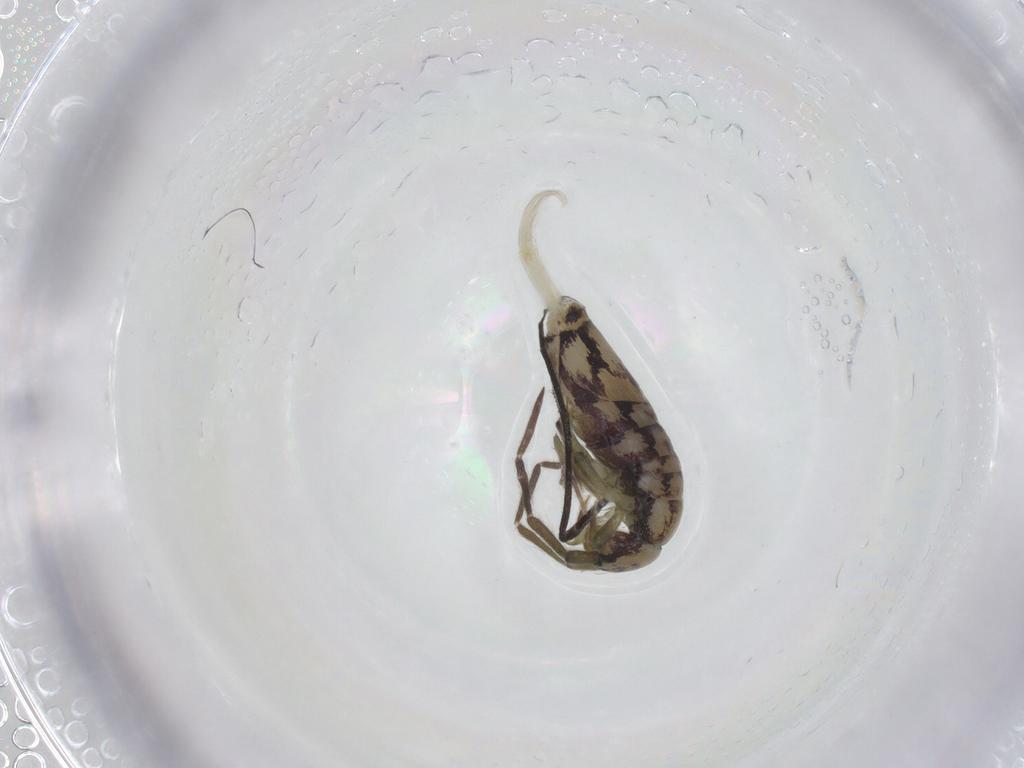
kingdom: Animalia
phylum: Arthropoda
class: Collembola
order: Entomobryomorpha
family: Entomobryidae
